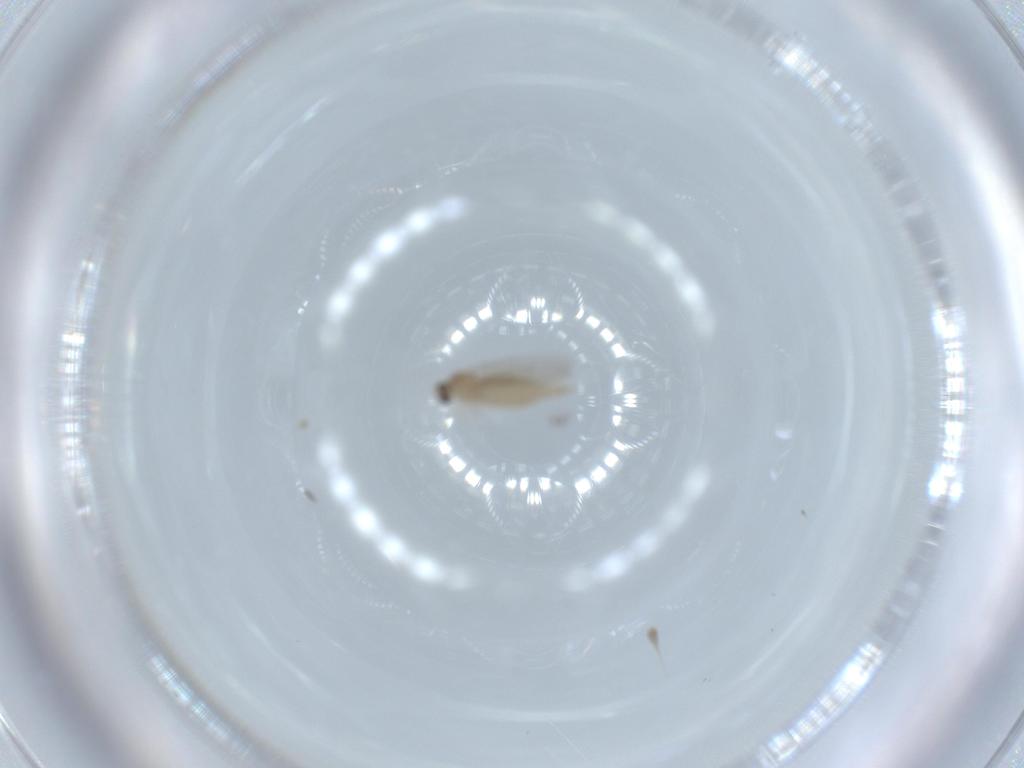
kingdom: Animalia
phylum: Arthropoda
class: Insecta
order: Diptera
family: Cecidomyiidae
